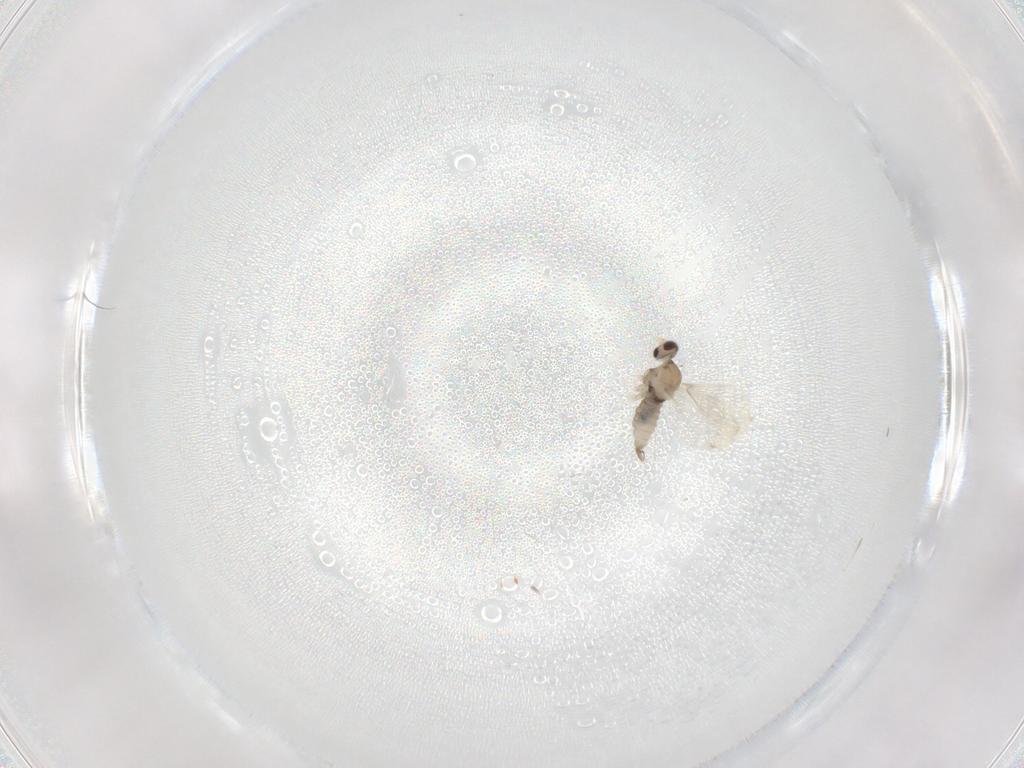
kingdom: Animalia
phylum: Arthropoda
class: Insecta
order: Diptera
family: Cecidomyiidae
